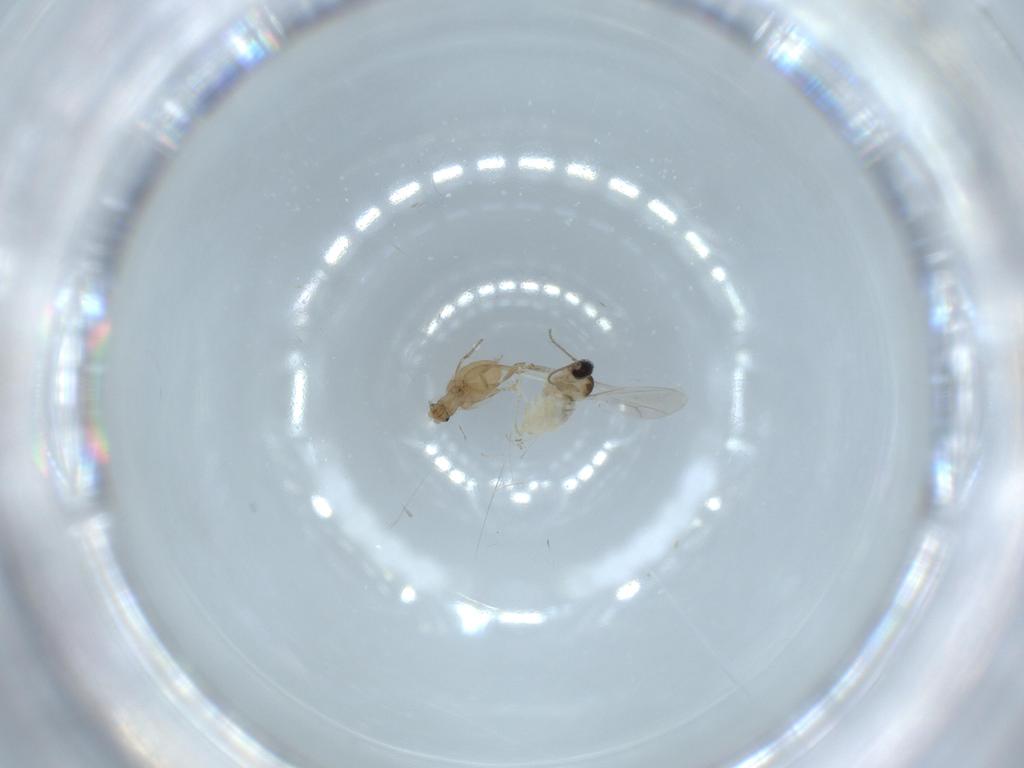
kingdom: Animalia
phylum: Arthropoda
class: Insecta
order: Diptera
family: Cecidomyiidae
